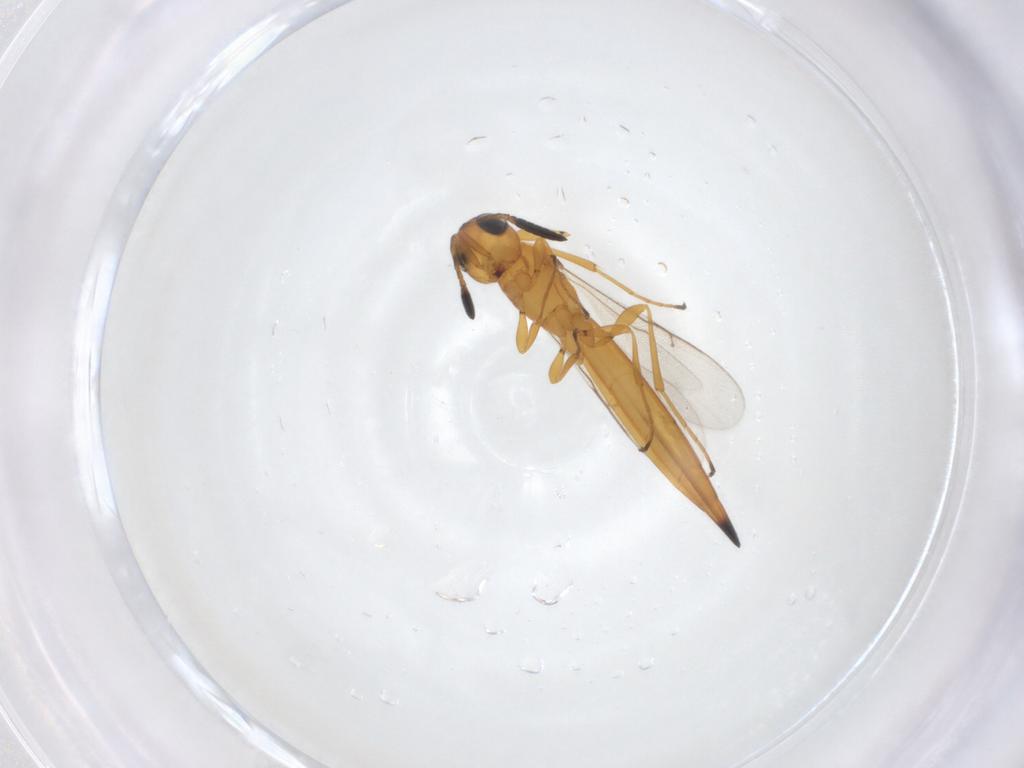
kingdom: Animalia
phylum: Arthropoda
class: Insecta
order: Hymenoptera
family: Scelionidae
